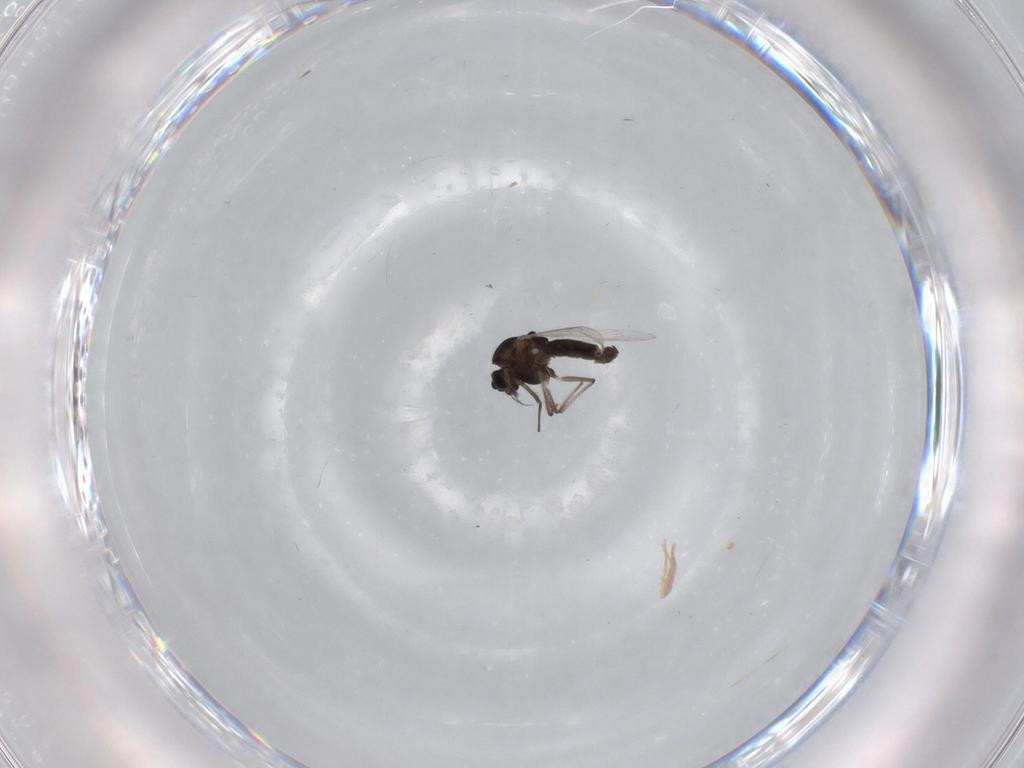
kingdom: Animalia
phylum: Arthropoda
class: Insecta
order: Diptera
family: Chironomidae
